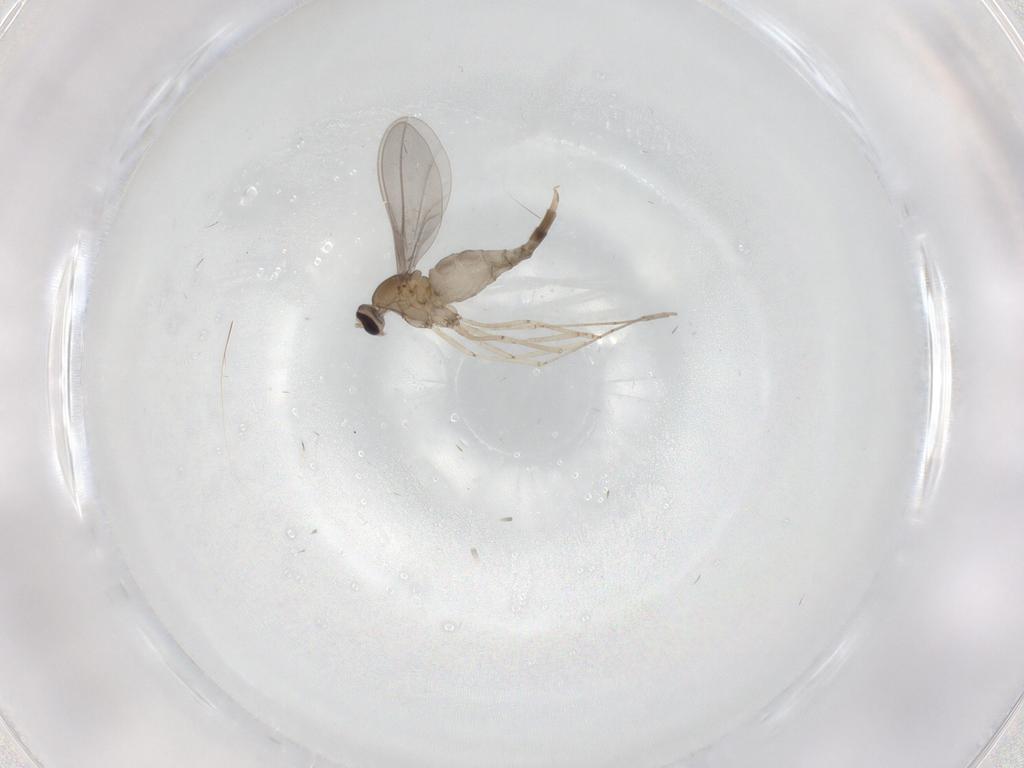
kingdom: Animalia
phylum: Arthropoda
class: Insecta
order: Diptera
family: Cecidomyiidae
